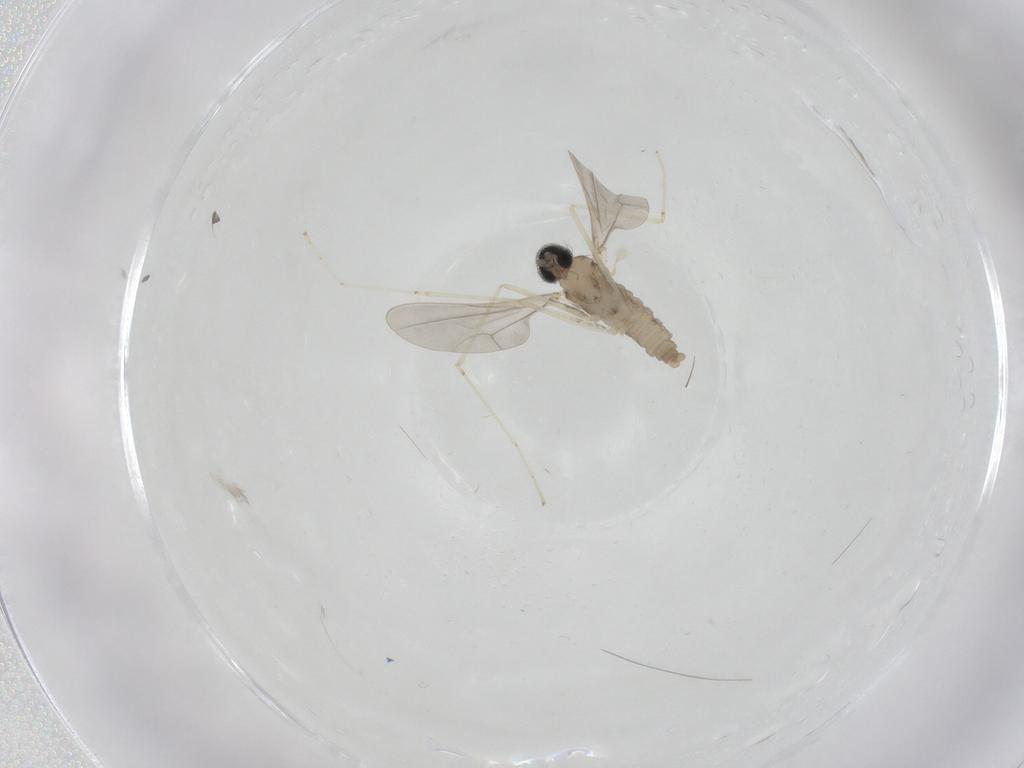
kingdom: Animalia
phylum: Arthropoda
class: Insecta
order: Diptera
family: Cecidomyiidae
